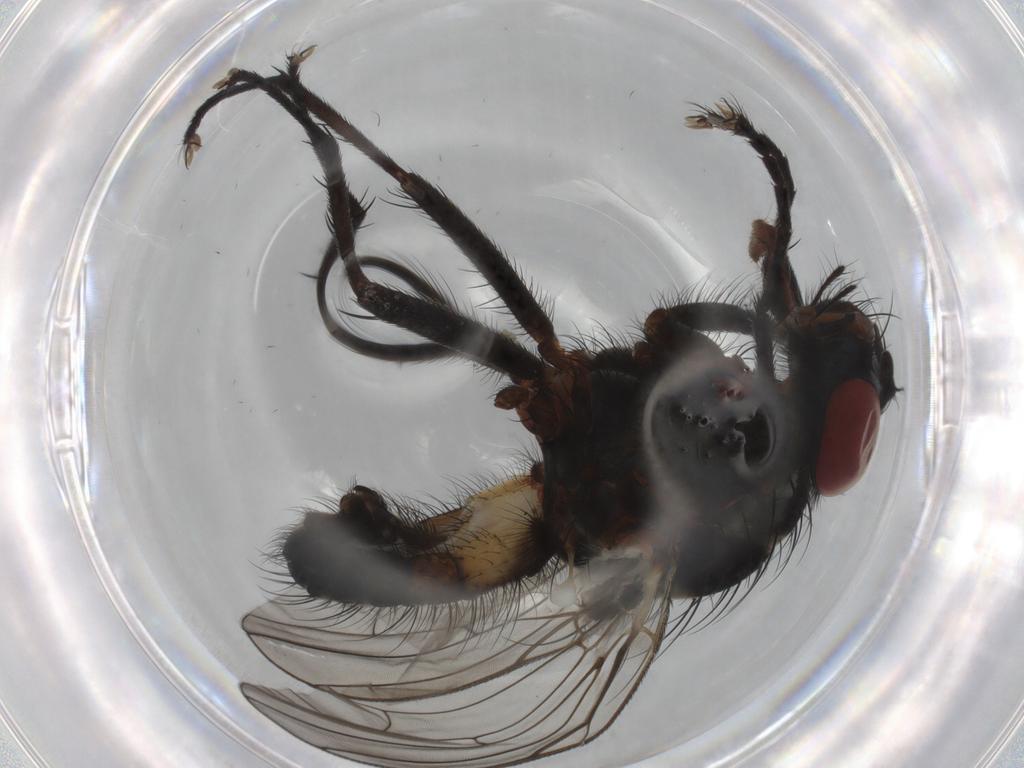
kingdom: Animalia
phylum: Arthropoda
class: Insecta
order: Diptera
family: Anthomyiidae
